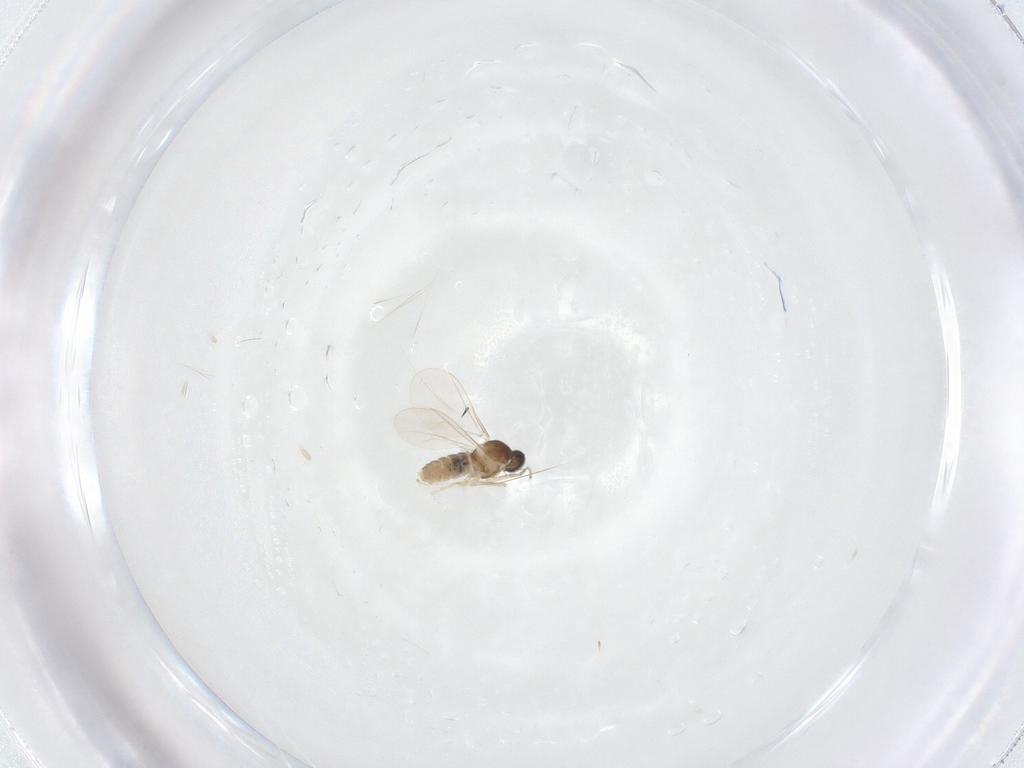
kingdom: Animalia
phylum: Arthropoda
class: Insecta
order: Diptera
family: Cecidomyiidae
